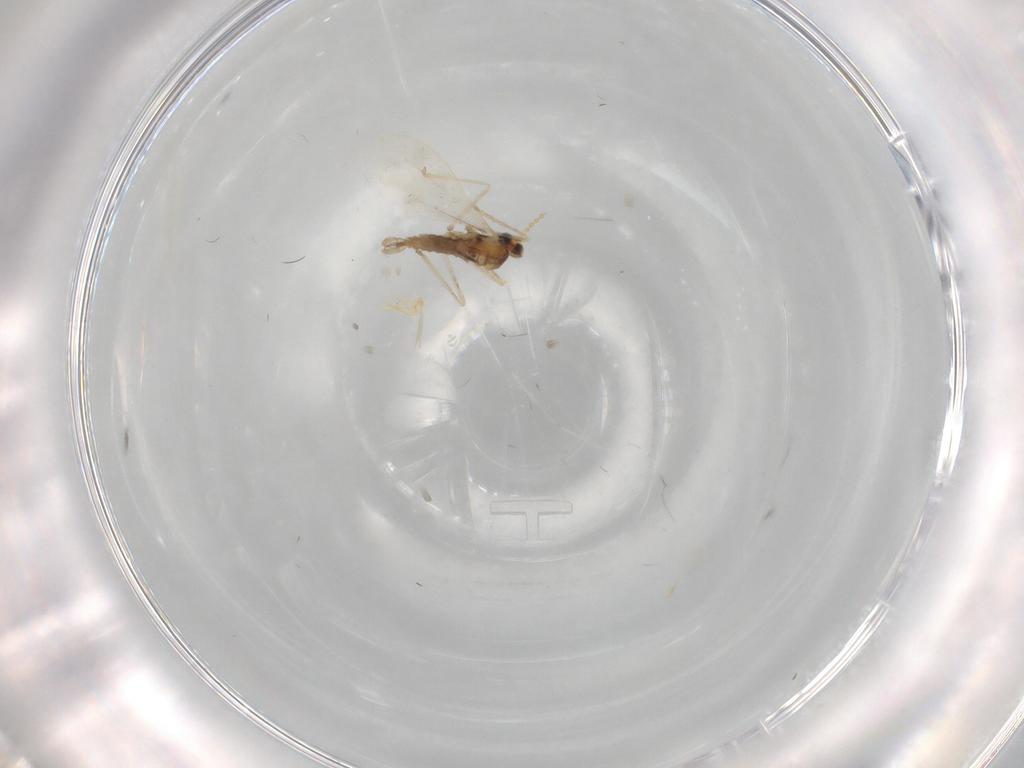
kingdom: Animalia
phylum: Arthropoda
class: Insecta
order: Diptera
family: Cecidomyiidae
